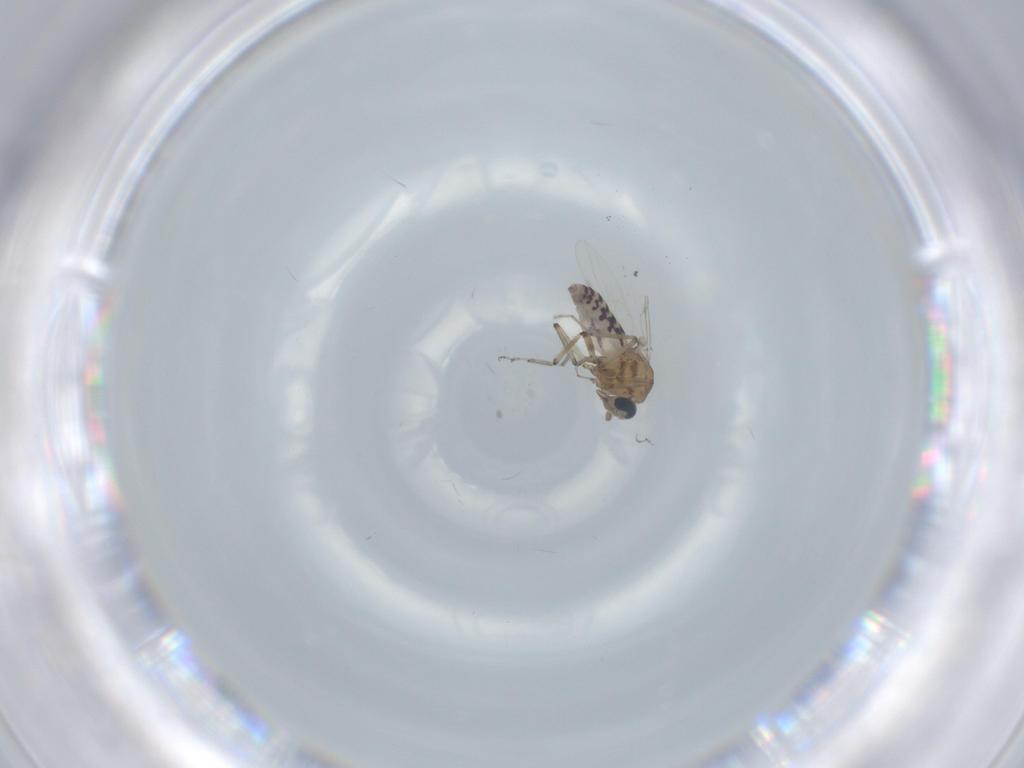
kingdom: Animalia
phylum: Arthropoda
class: Insecta
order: Diptera
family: Ceratopogonidae
